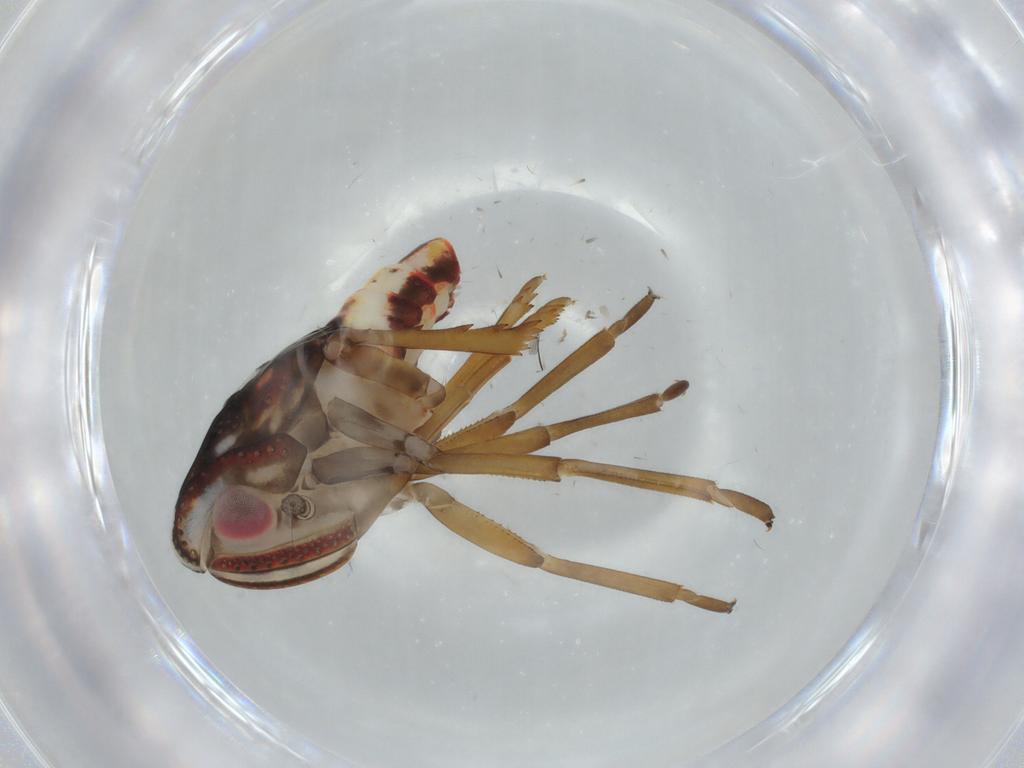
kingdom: Animalia
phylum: Arthropoda
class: Insecta
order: Hemiptera
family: Nogodinidae
